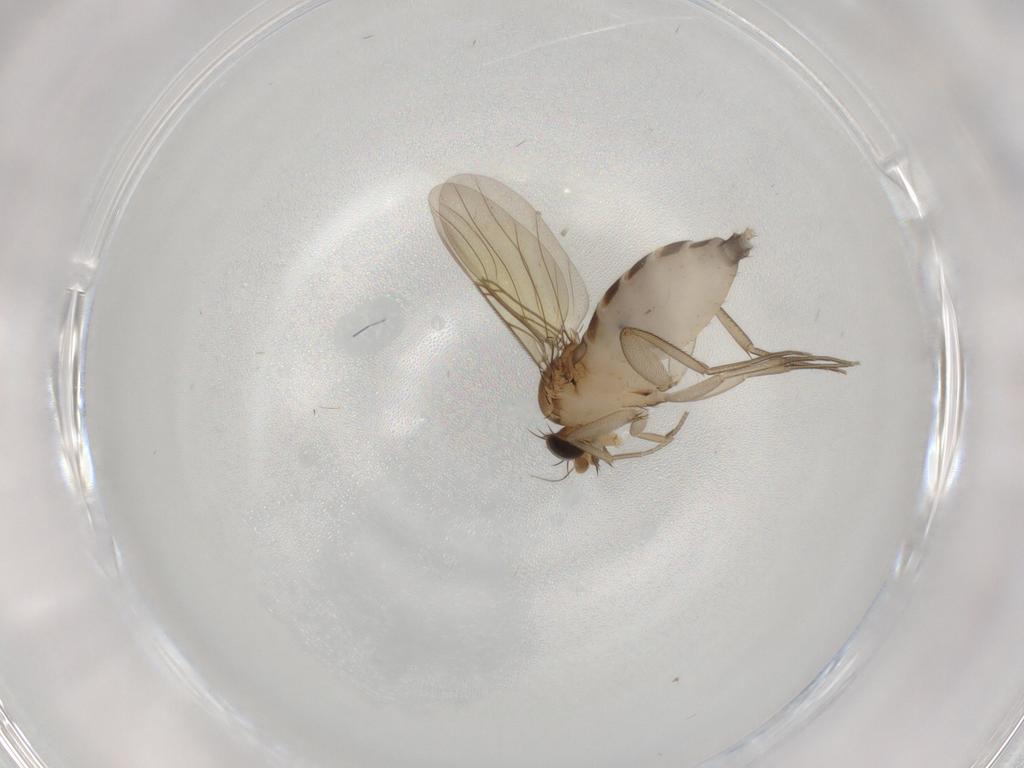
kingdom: Animalia
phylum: Arthropoda
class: Insecta
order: Diptera
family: Phoridae
